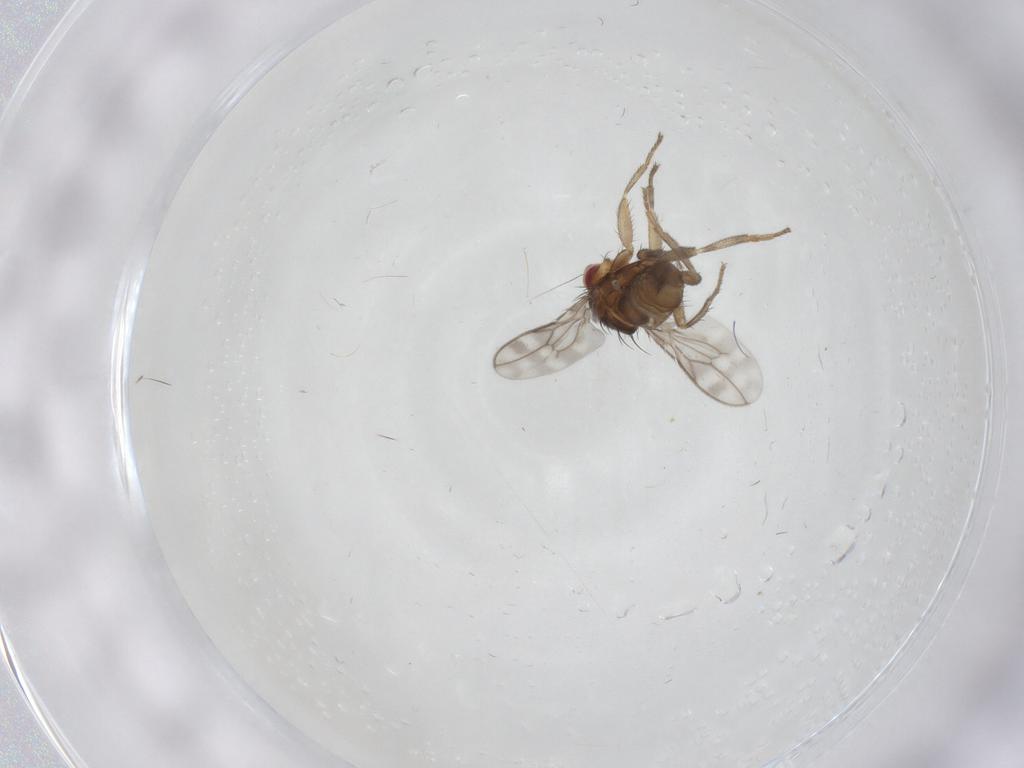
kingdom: Animalia
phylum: Arthropoda
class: Insecta
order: Diptera
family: Sphaeroceridae
